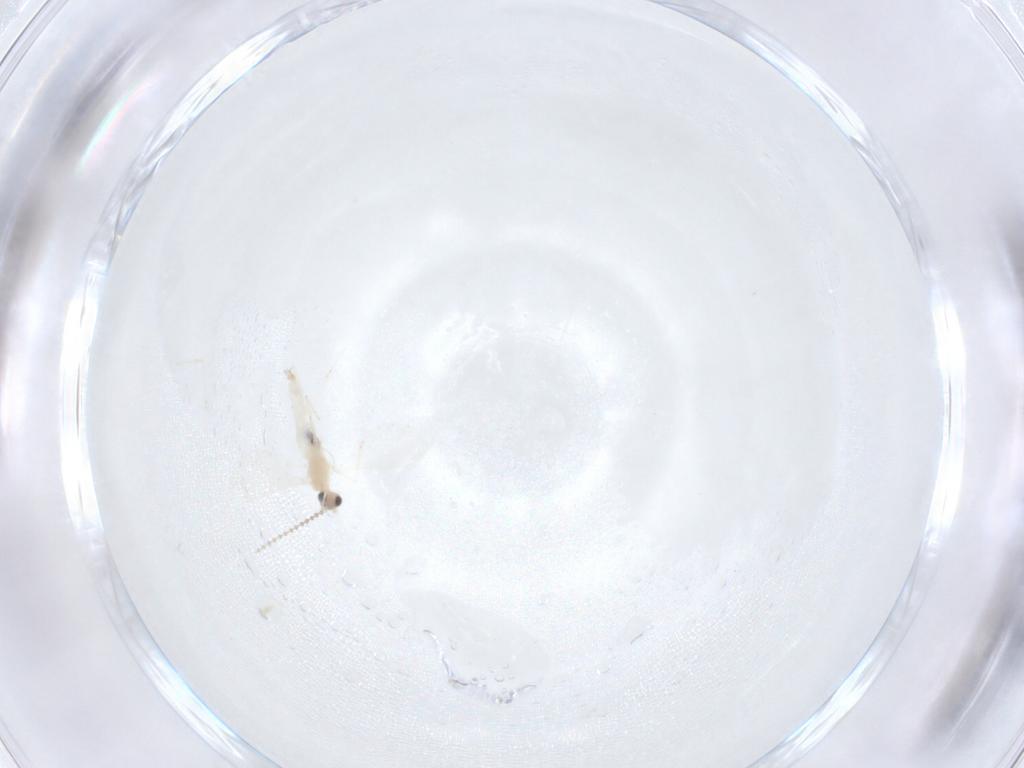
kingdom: Animalia
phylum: Arthropoda
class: Insecta
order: Diptera
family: Cecidomyiidae
